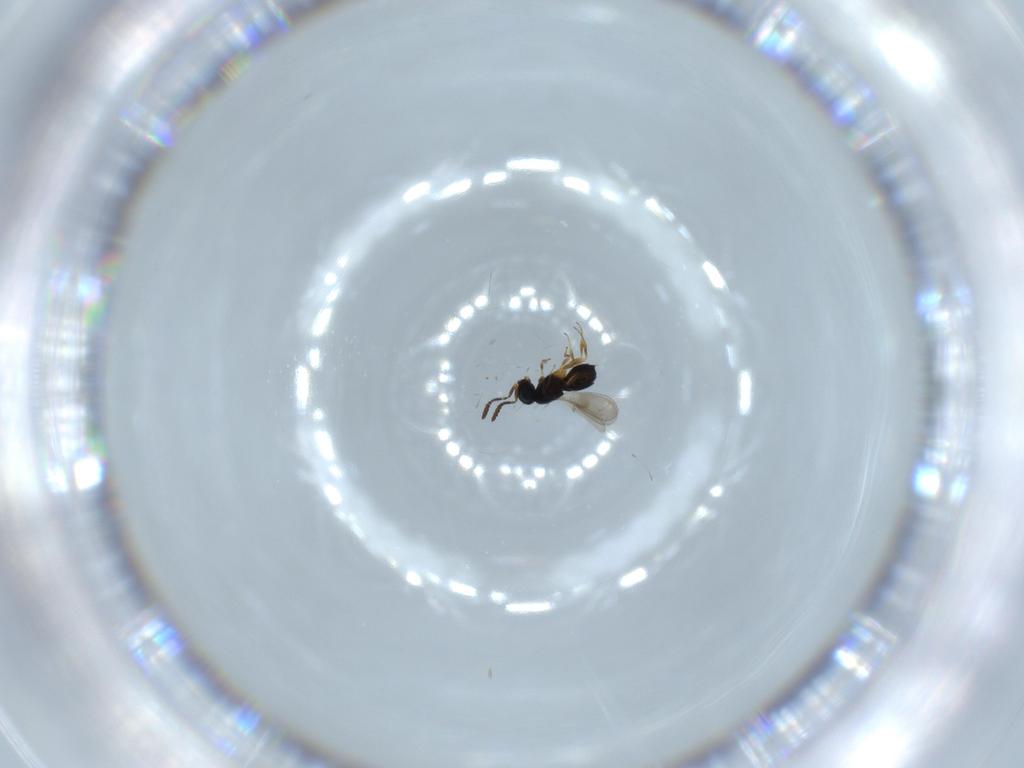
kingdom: Animalia
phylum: Arthropoda
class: Insecta
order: Hymenoptera
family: Scelionidae
